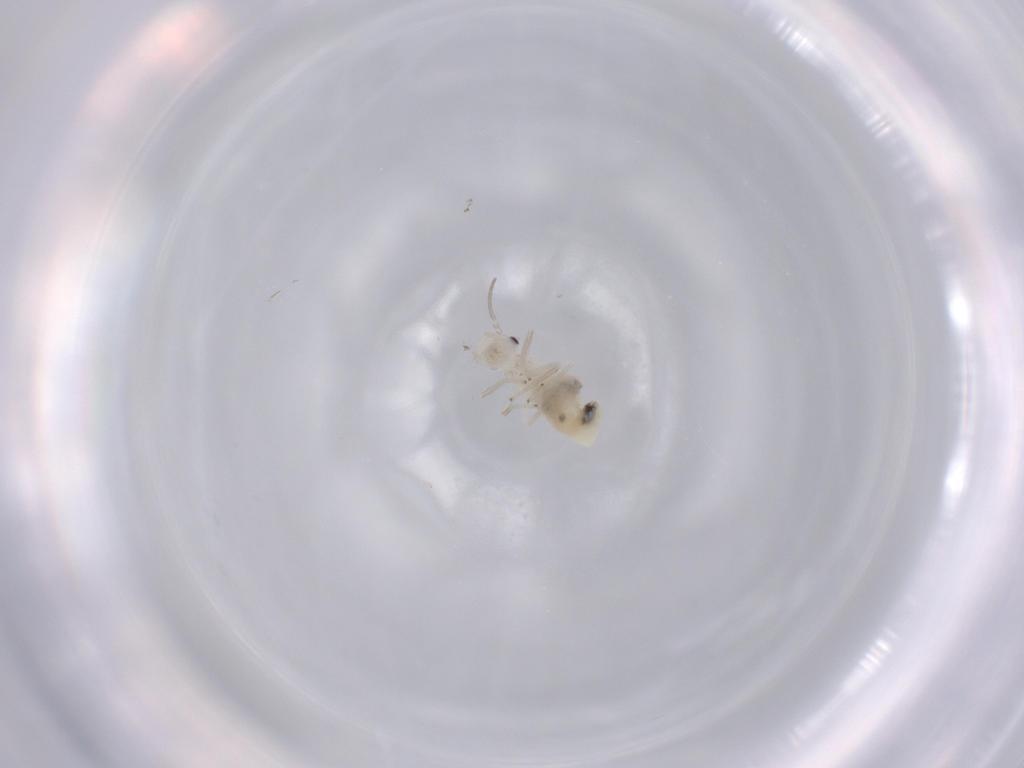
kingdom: Animalia
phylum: Arthropoda
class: Insecta
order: Psocodea
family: Caeciliusidae
